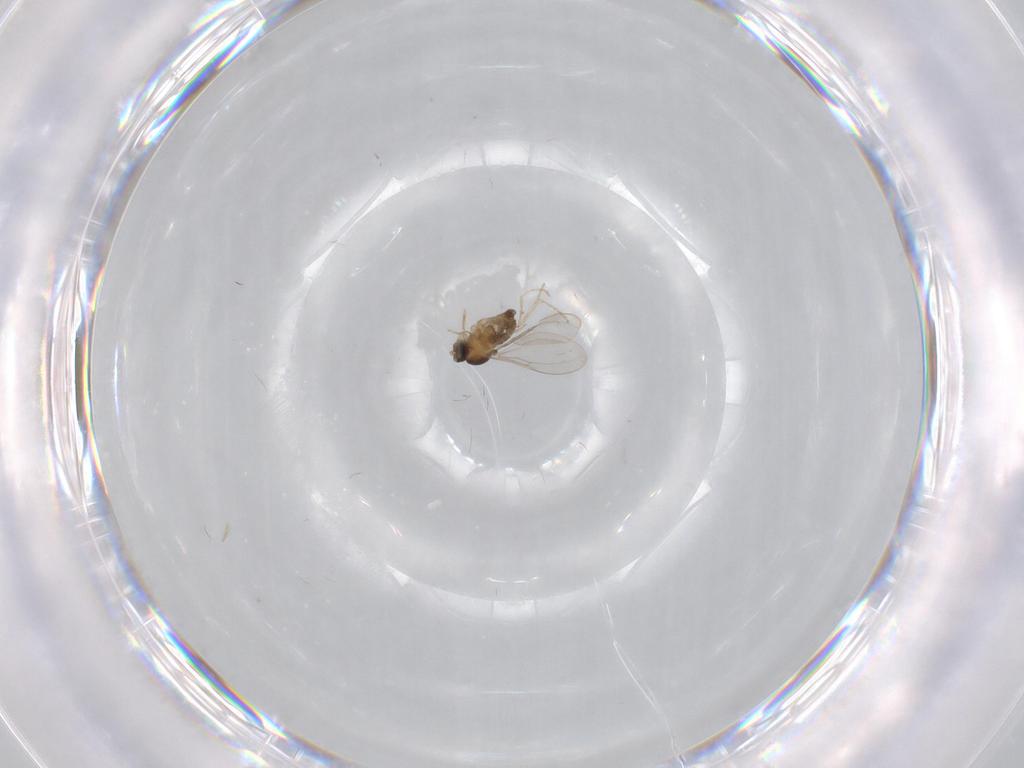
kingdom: Animalia
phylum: Arthropoda
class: Insecta
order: Diptera
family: Cecidomyiidae
